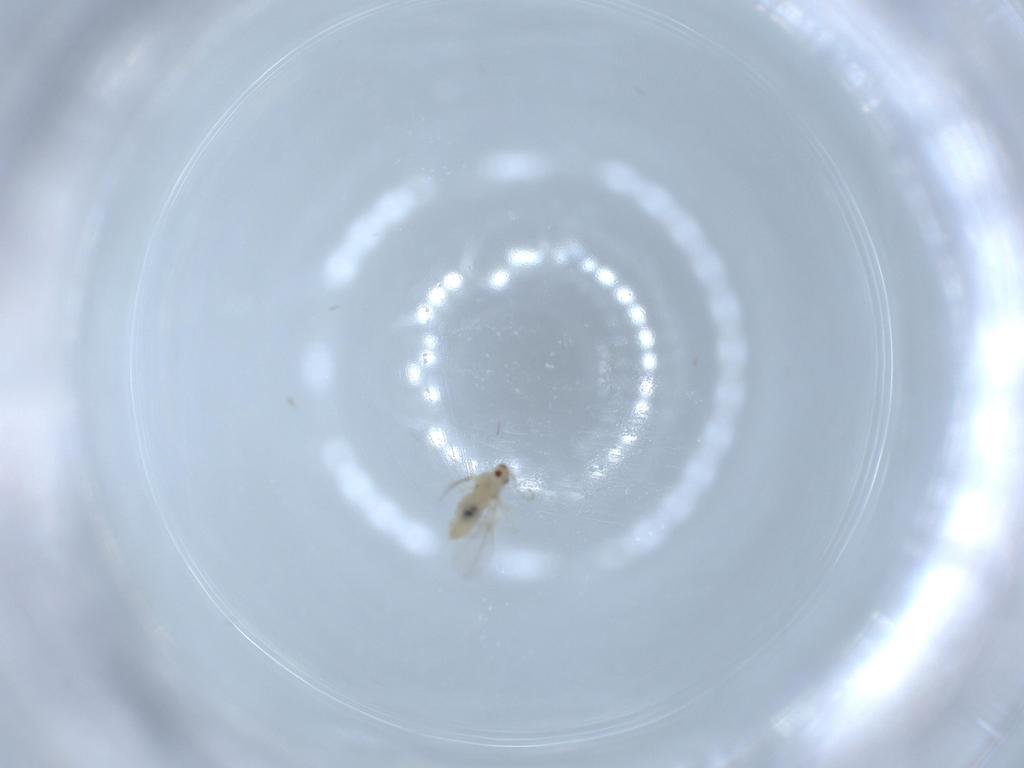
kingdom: Animalia
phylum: Arthropoda
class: Insecta
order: Diptera
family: Cecidomyiidae
